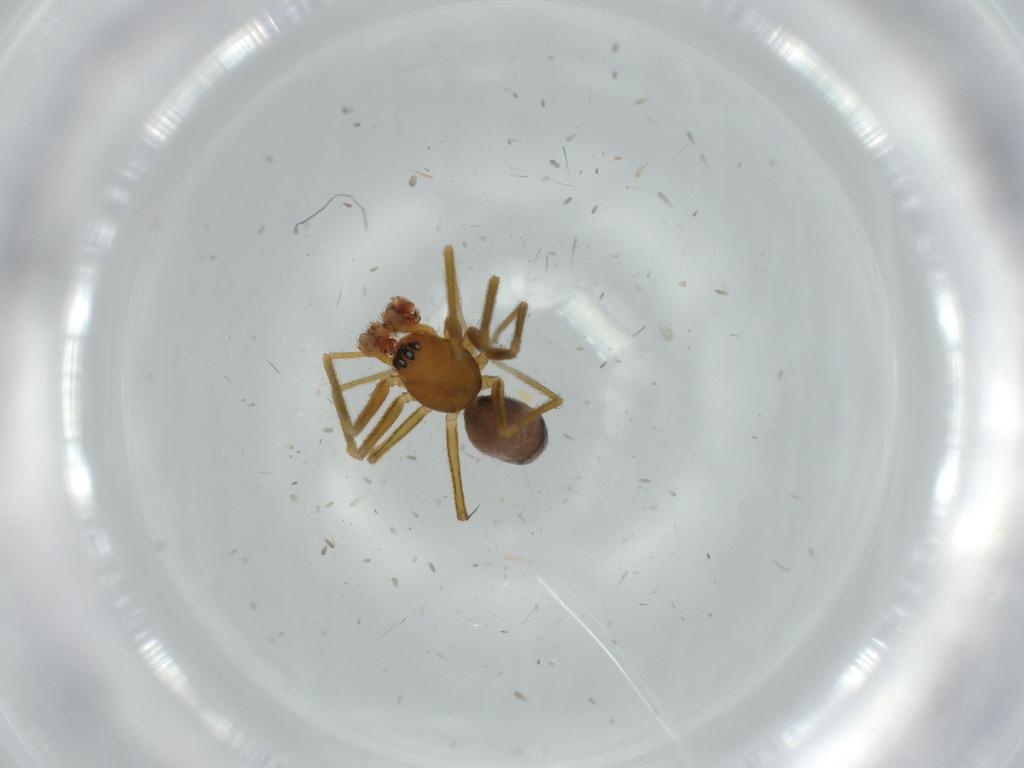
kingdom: Animalia
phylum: Arthropoda
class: Arachnida
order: Araneae
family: Linyphiidae
